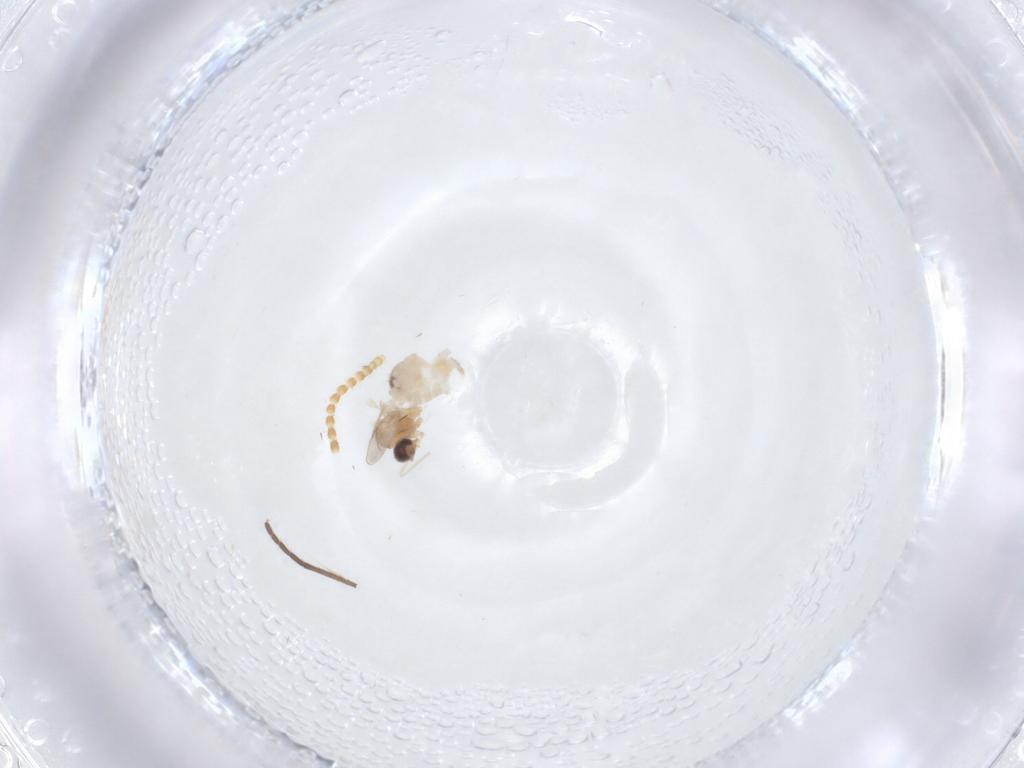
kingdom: Animalia
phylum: Arthropoda
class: Insecta
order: Diptera
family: Cecidomyiidae
